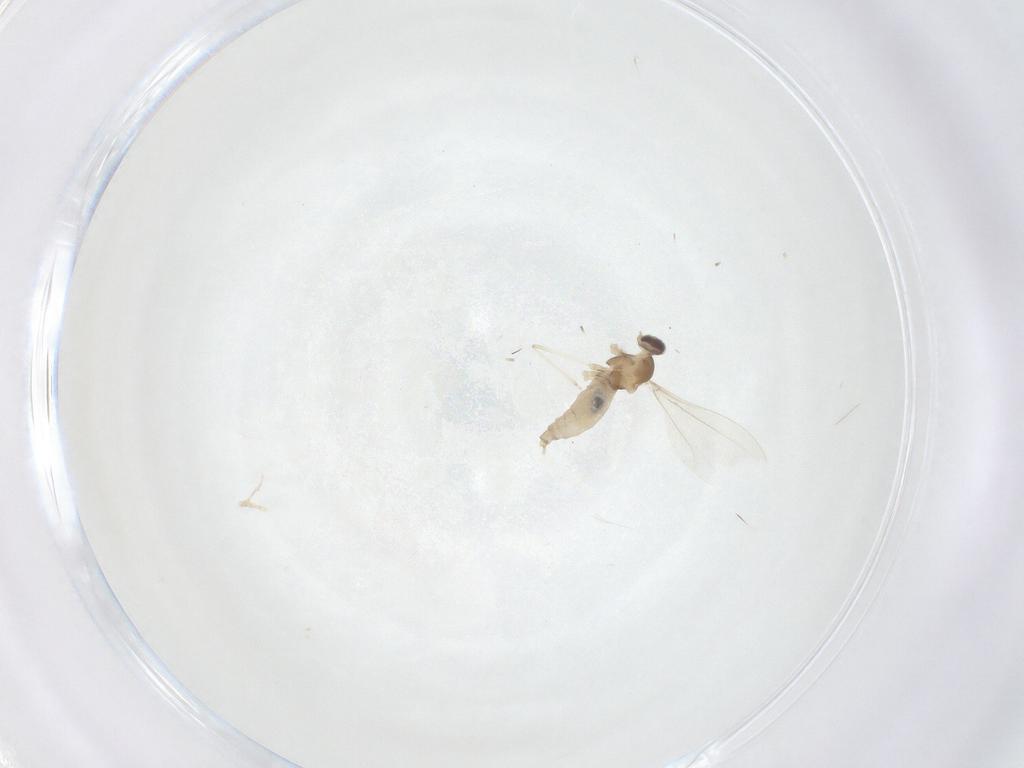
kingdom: Animalia
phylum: Arthropoda
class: Insecta
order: Diptera
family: Cecidomyiidae
